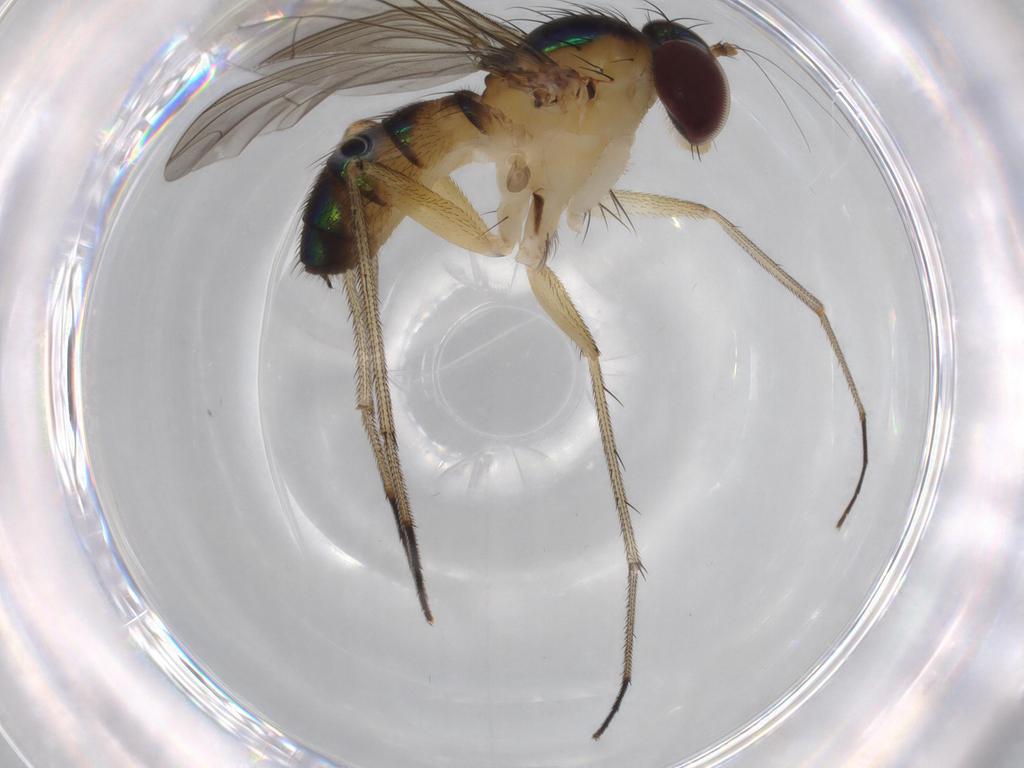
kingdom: Animalia
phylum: Arthropoda
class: Insecta
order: Diptera
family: Dolichopodidae
